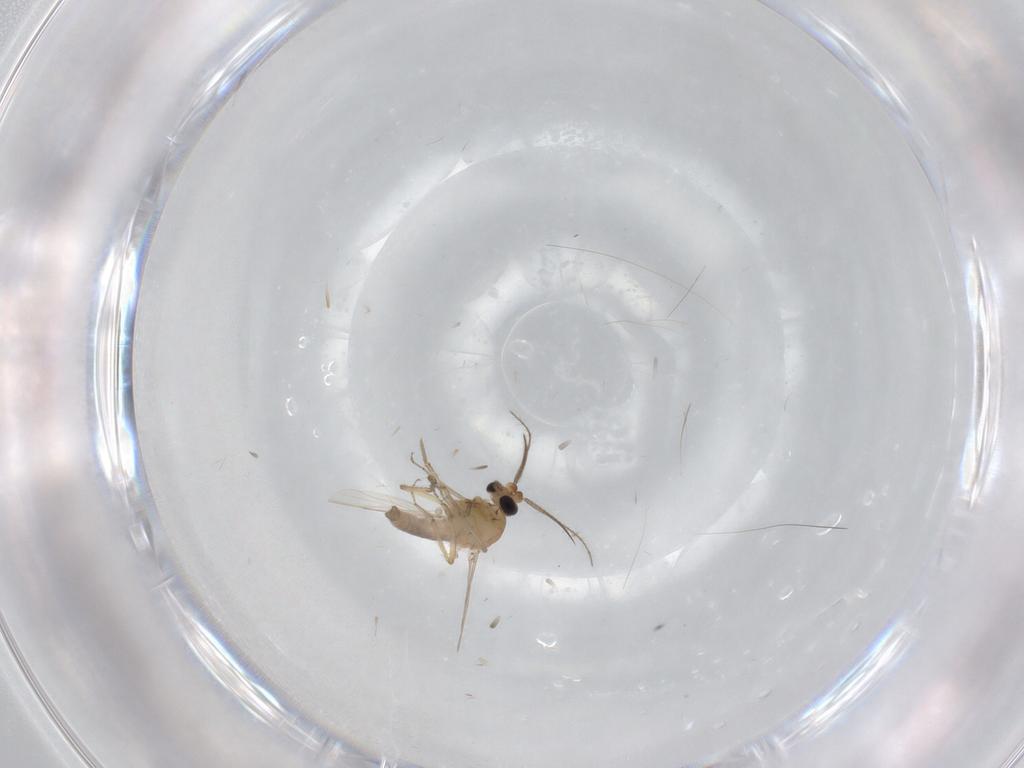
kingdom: Animalia
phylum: Arthropoda
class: Insecta
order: Diptera
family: Ceratopogonidae
